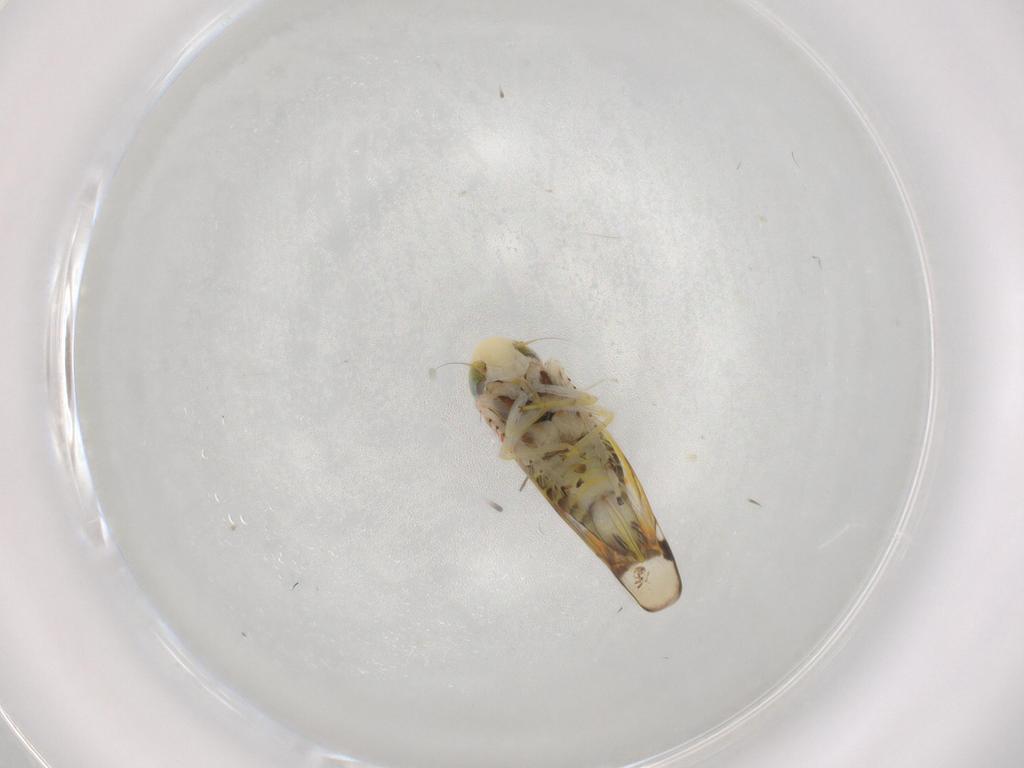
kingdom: Animalia
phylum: Arthropoda
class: Insecta
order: Hemiptera
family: Cicadellidae
